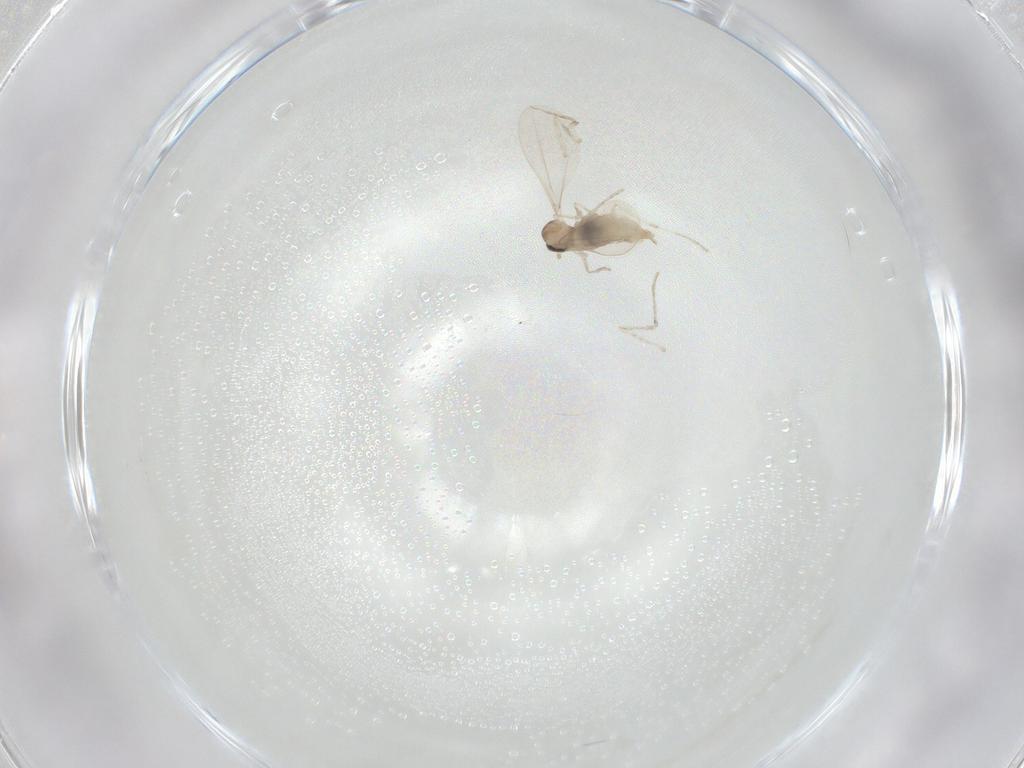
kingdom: Animalia
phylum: Arthropoda
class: Insecta
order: Diptera
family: Cecidomyiidae
